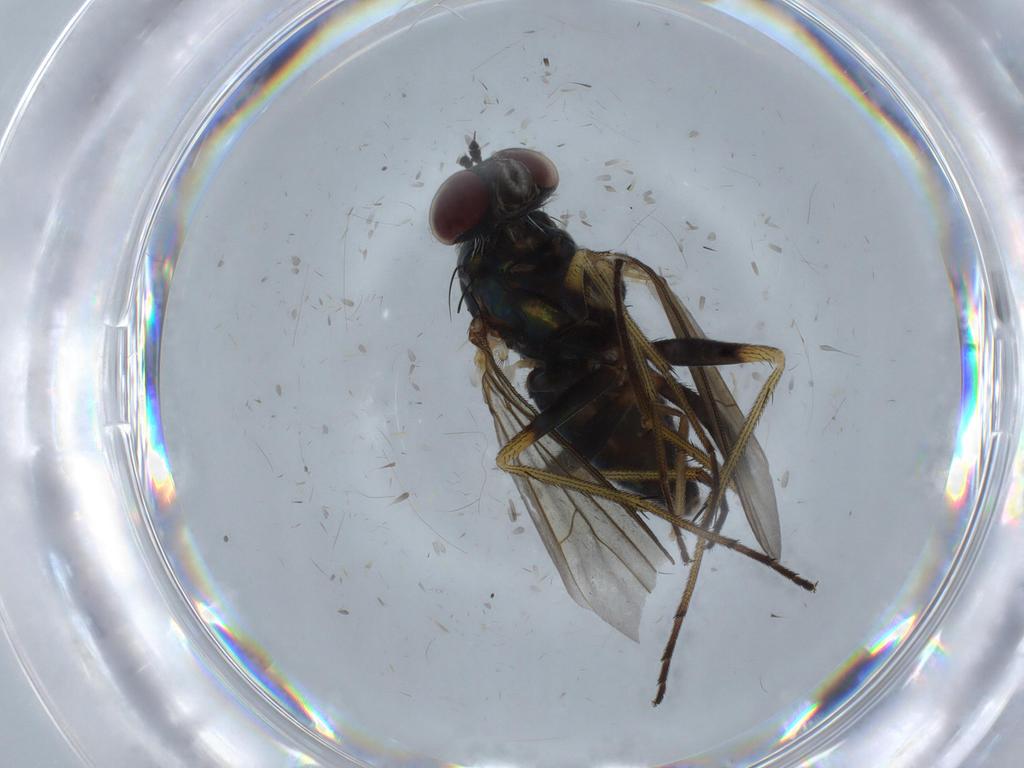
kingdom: Animalia
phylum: Arthropoda
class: Insecta
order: Diptera
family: Dolichopodidae
